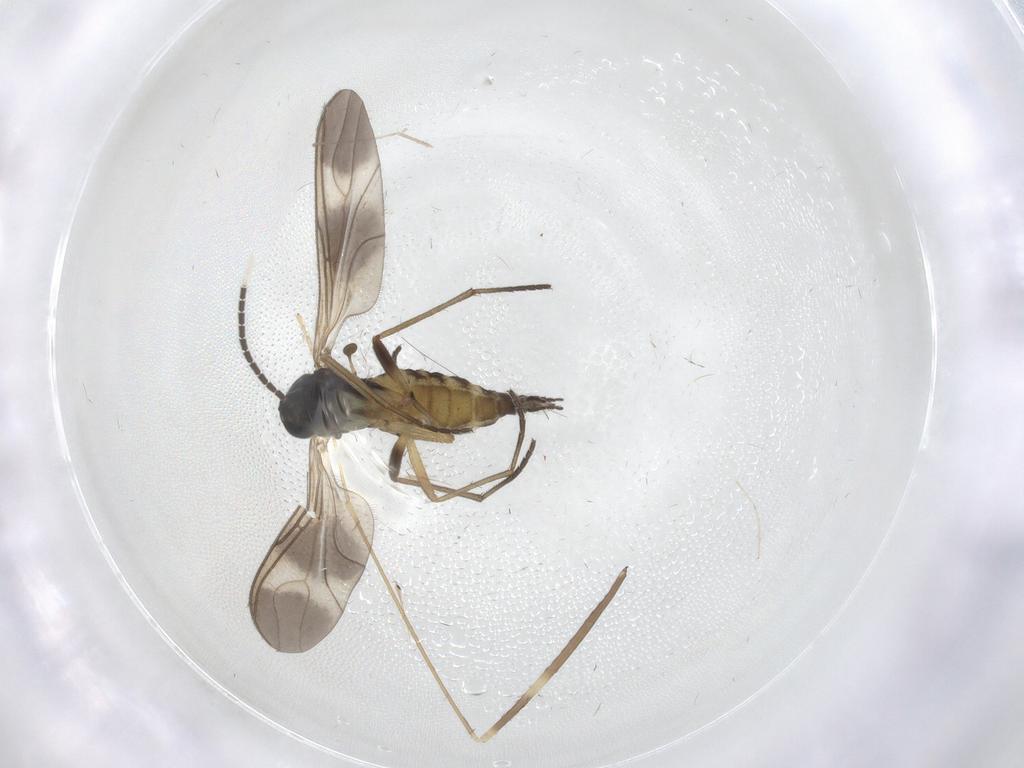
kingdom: Animalia
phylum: Arthropoda
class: Insecta
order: Diptera
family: Sciaridae
